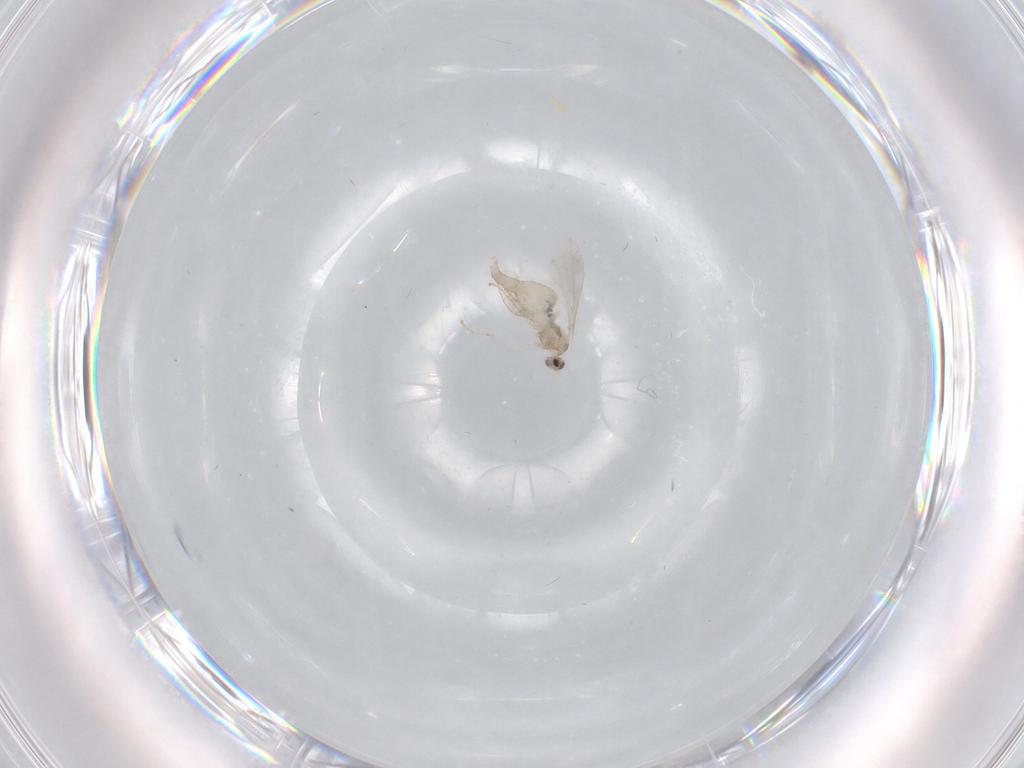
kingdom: Animalia
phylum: Arthropoda
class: Insecta
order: Diptera
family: Cecidomyiidae
